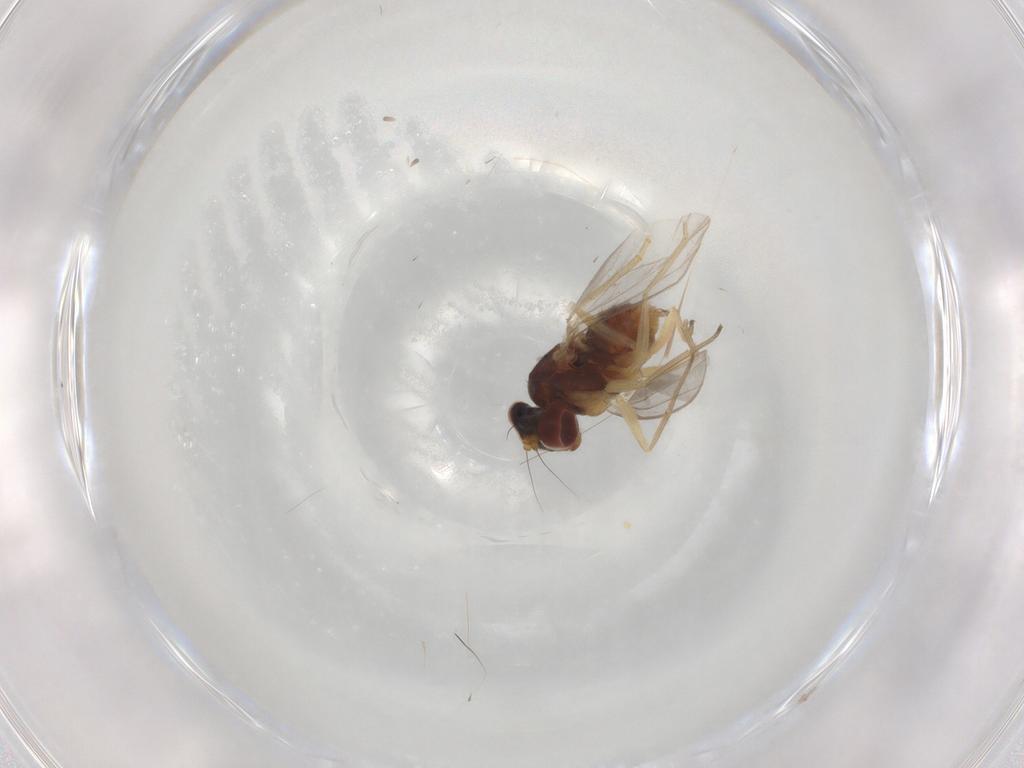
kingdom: Animalia
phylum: Arthropoda
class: Insecta
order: Diptera
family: Dolichopodidae
